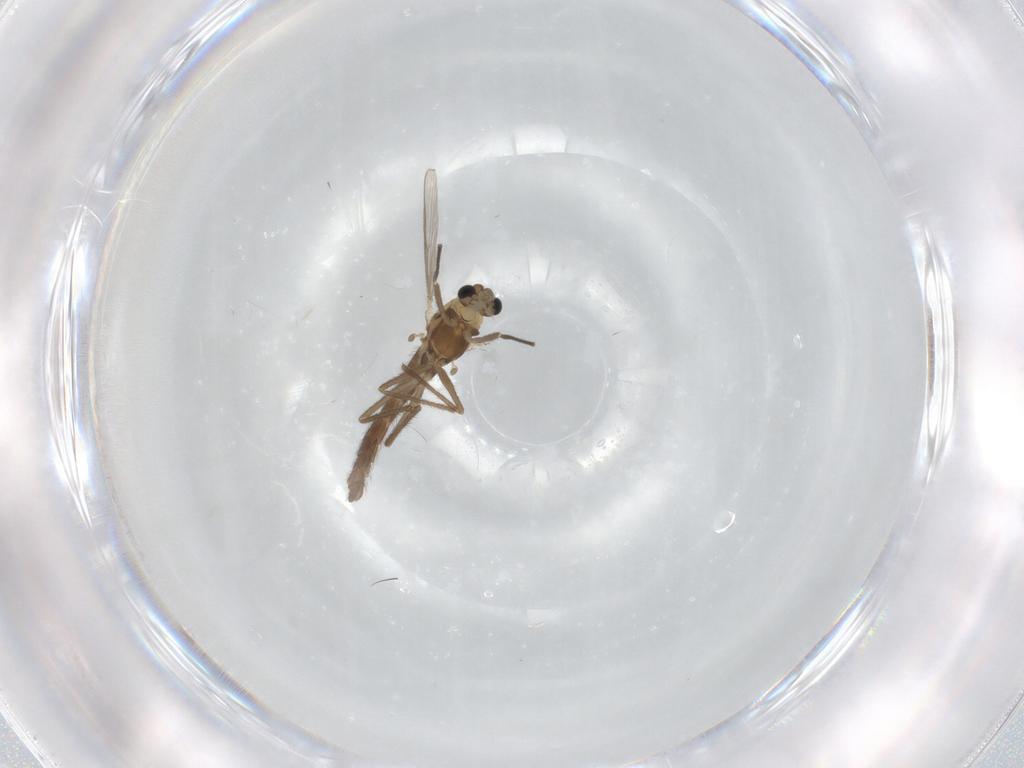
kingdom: Animalia
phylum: Arthropoda
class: Insecta
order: Diptera
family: Chironomidae
